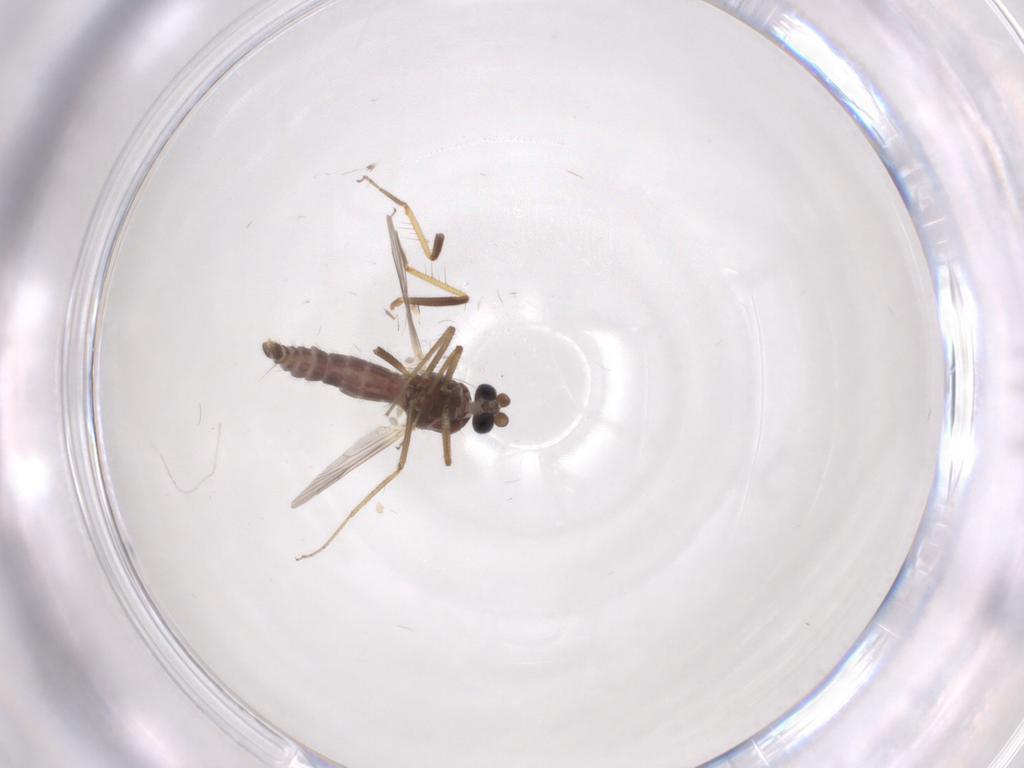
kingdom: Animalia
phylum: Arthropoda
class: Insecta
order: Diptera
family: Ceratopogonidae
